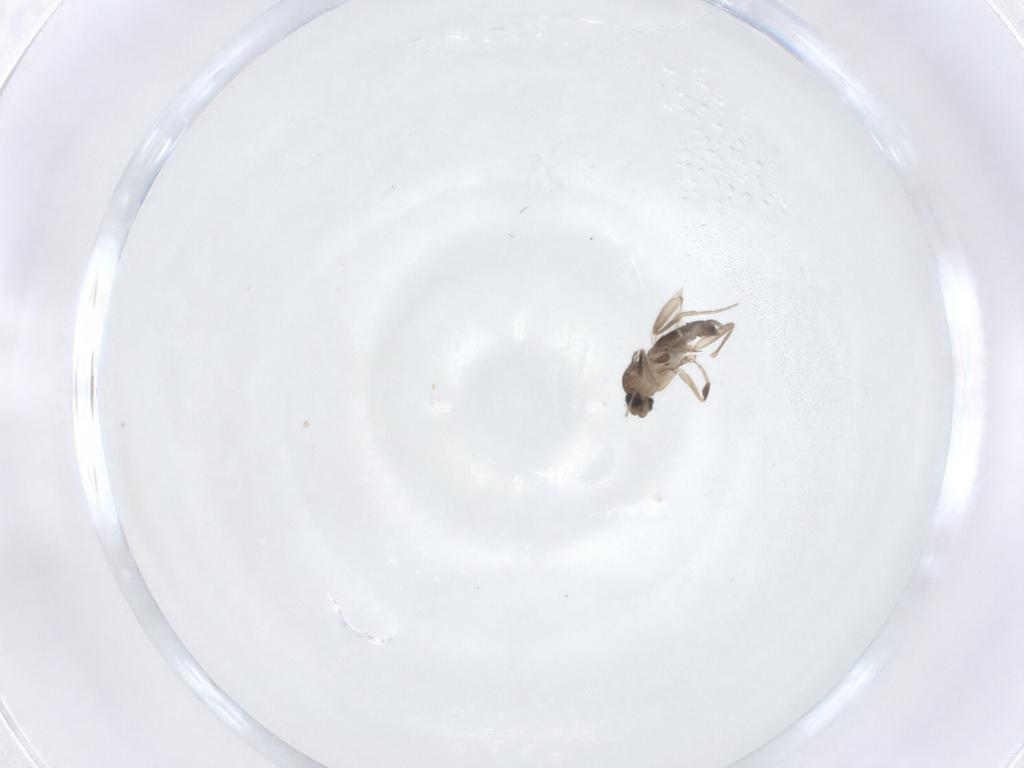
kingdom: Animalia
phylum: Arthropoda
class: Insecta
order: Diptera
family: Phoridae
